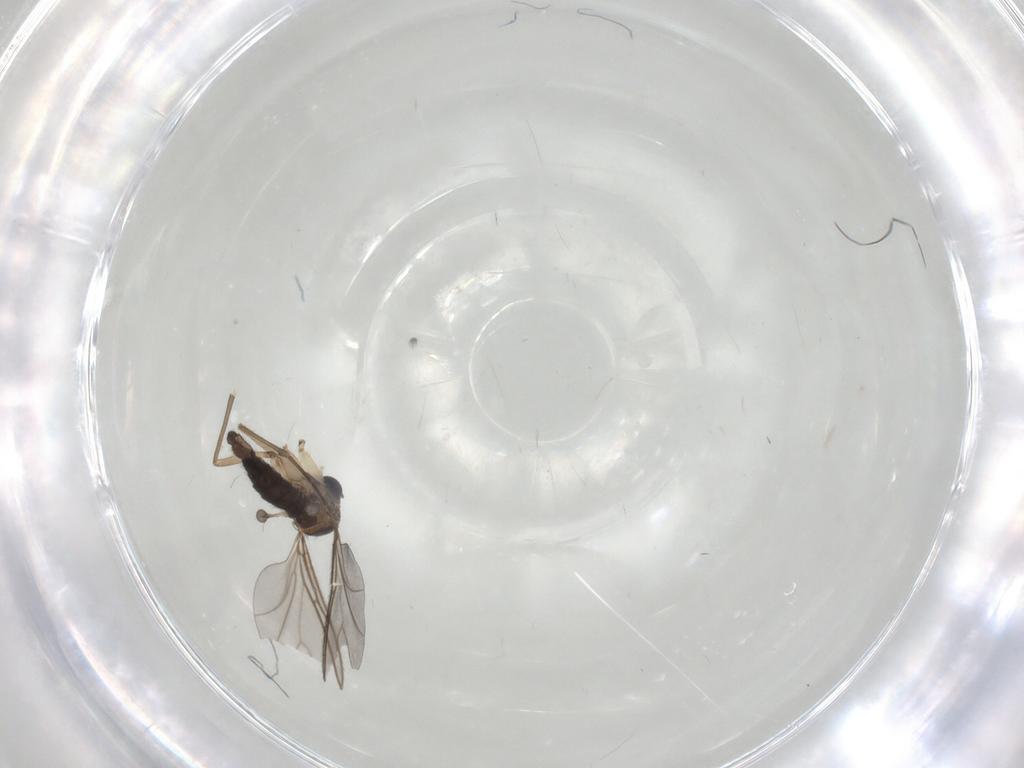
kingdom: Animalia
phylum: Arthropoda
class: Insecta
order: Diptera
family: Sciaridae
